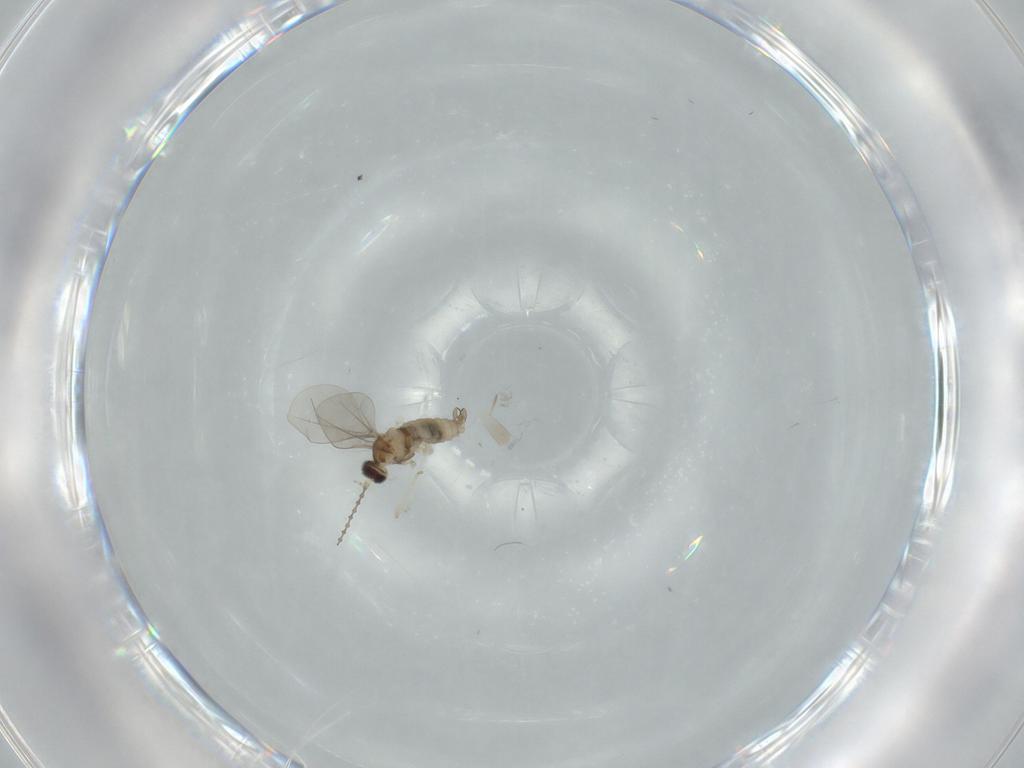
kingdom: Animalia
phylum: Arthropoda
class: Insecta
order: Diptera
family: Cecidomyiidae
